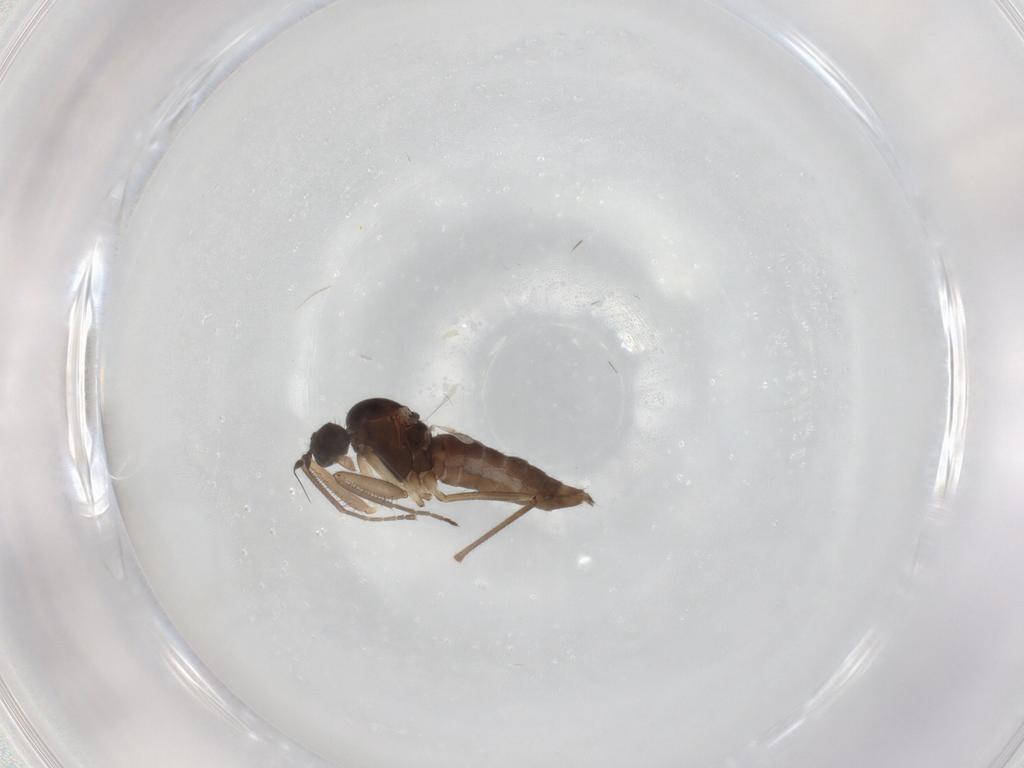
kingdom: Animalia
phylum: Arthropoda
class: Insecta
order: Diptera
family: Empididae
